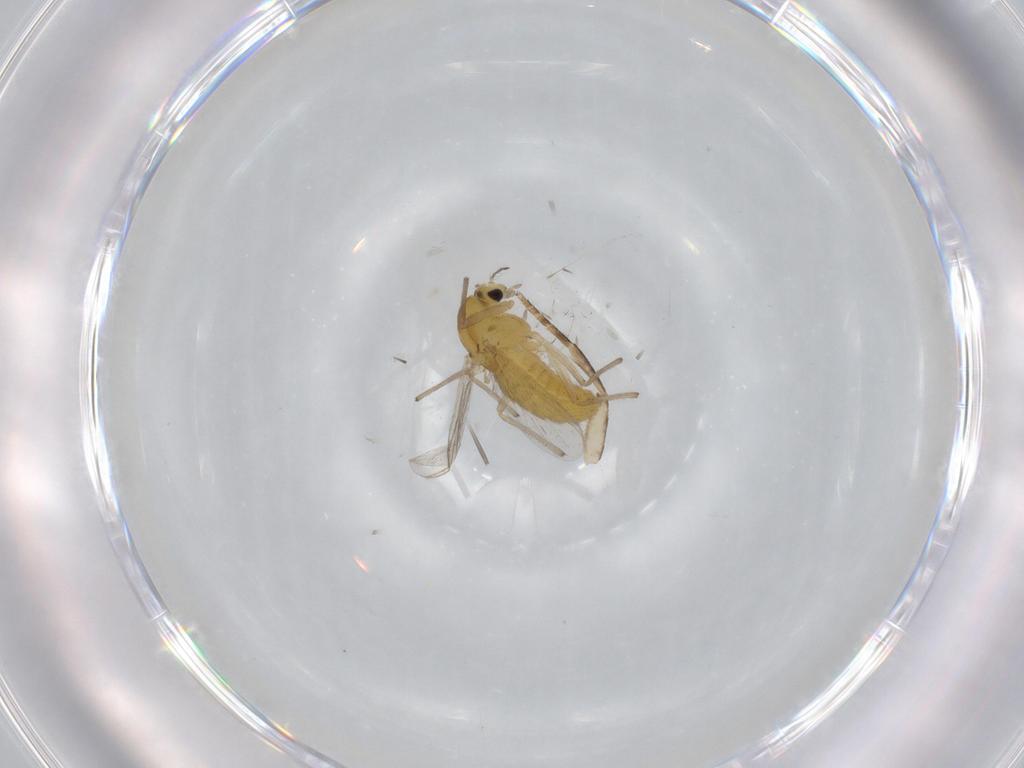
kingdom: Animalia
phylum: Arthropoda
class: Insecta
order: Diptera
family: Chironomidae
